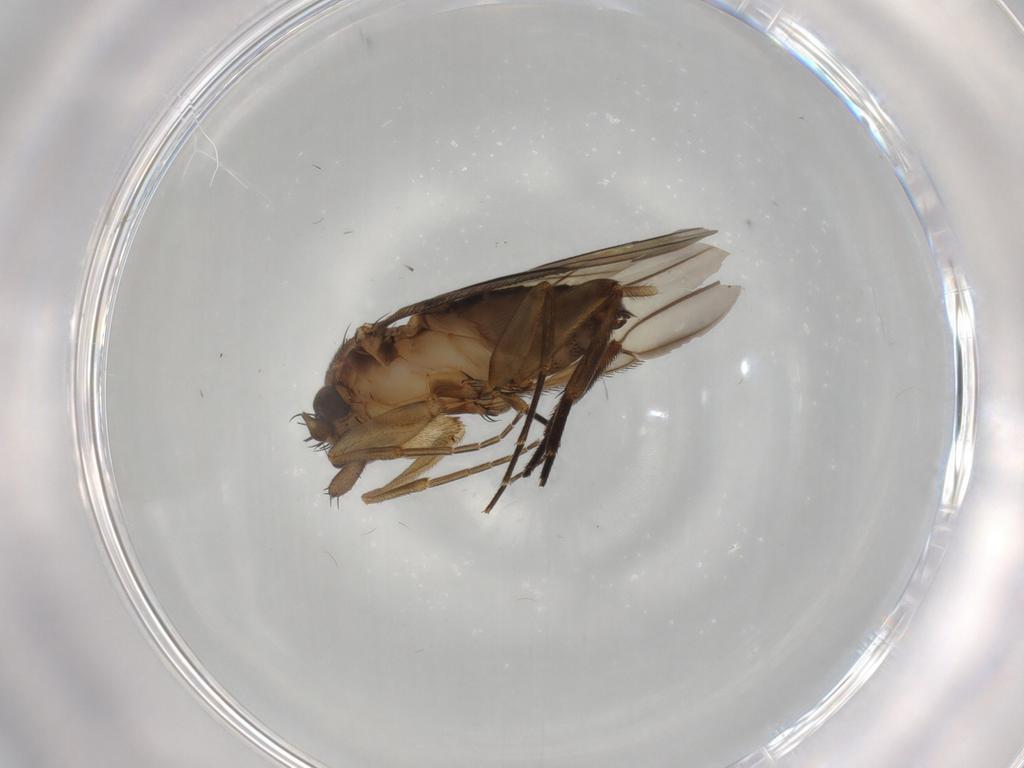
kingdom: Animalia
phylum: Arthropoda
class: Insecta
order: Diptera
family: Phoridae
